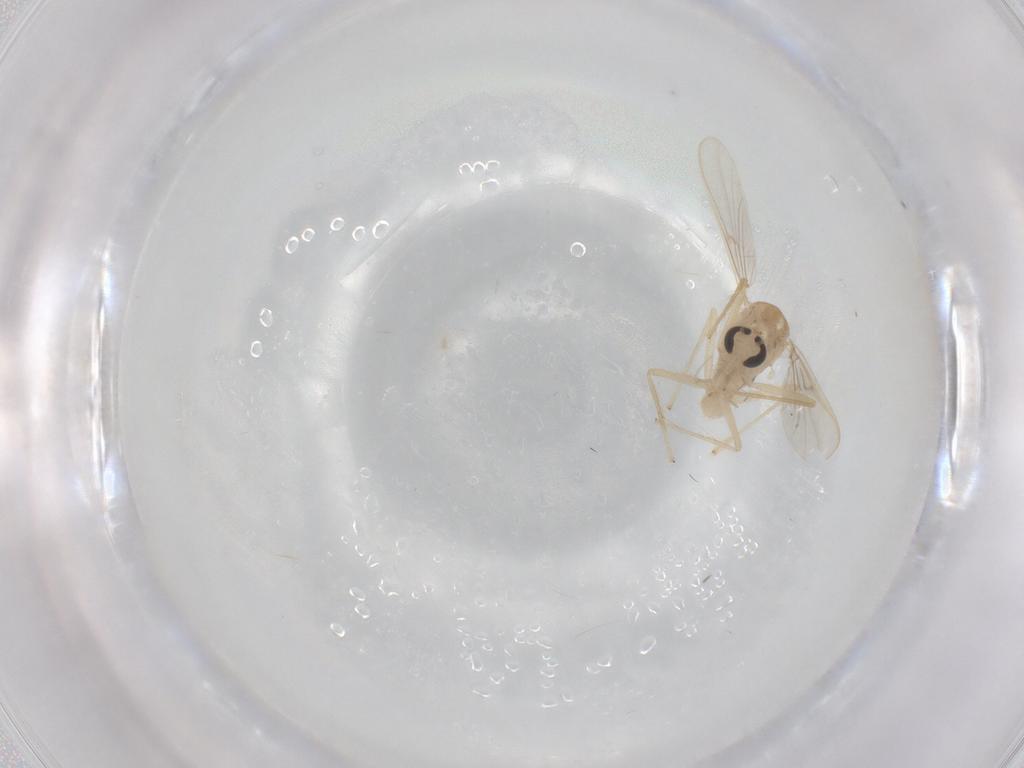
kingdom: Animalia
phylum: Arthropoda
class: Insecta
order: Diptera
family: Chironomidae
